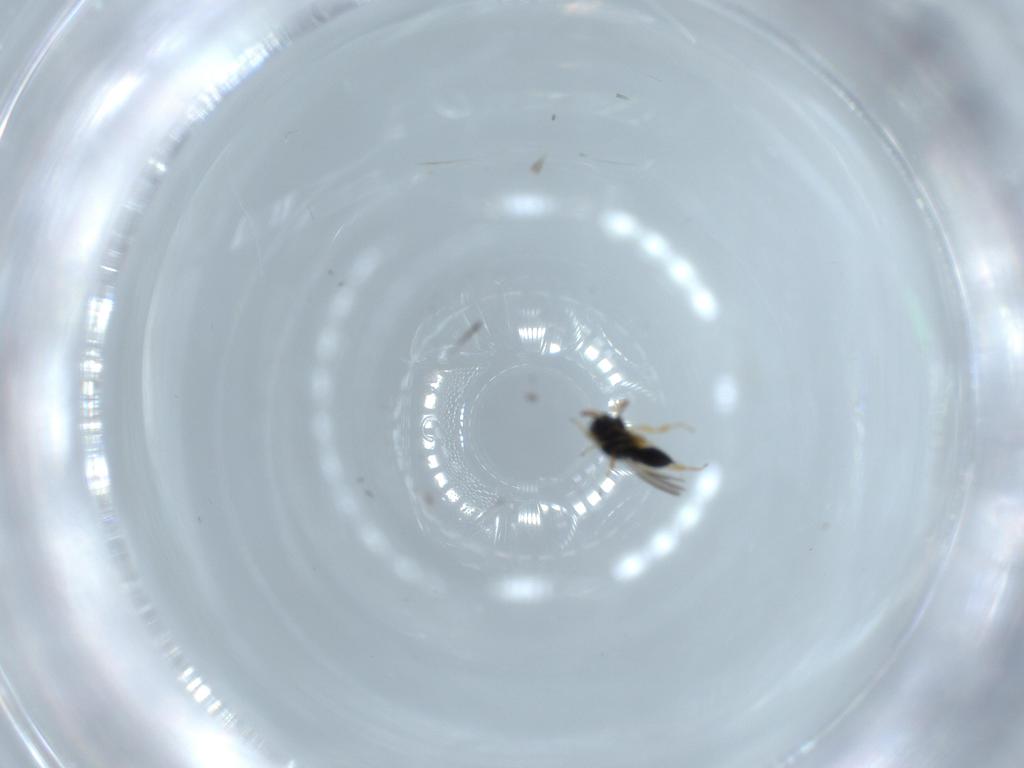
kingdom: Animalia
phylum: Arthropoda
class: Insecta
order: Hymenoptera
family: Scelionidae
